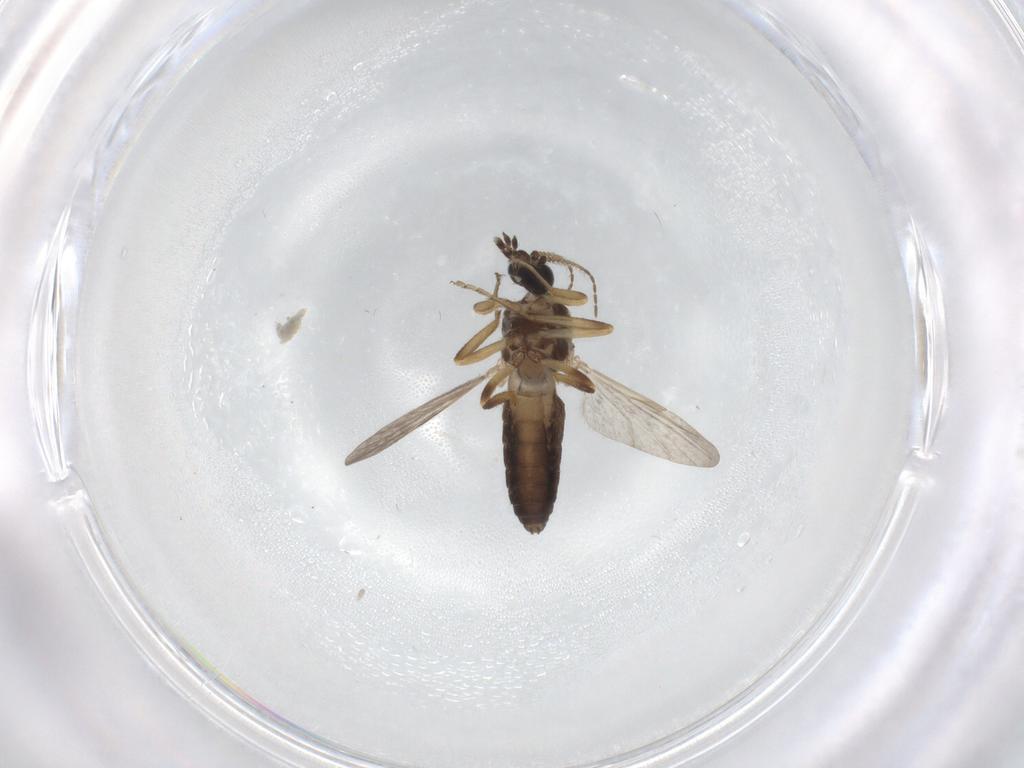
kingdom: Animalia
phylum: Arthropoda
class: Insecta
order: Diptera
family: Ceratopogonidae
